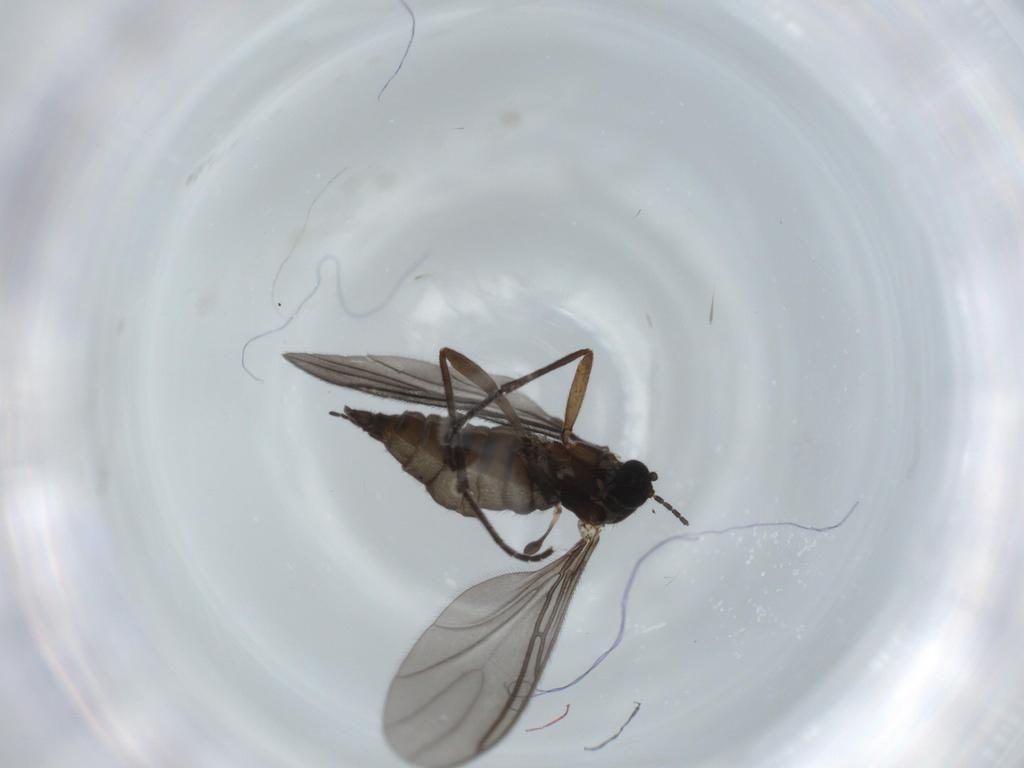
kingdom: Animalia
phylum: Arthropoda
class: Insecta
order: Diptera
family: Sciaridae
